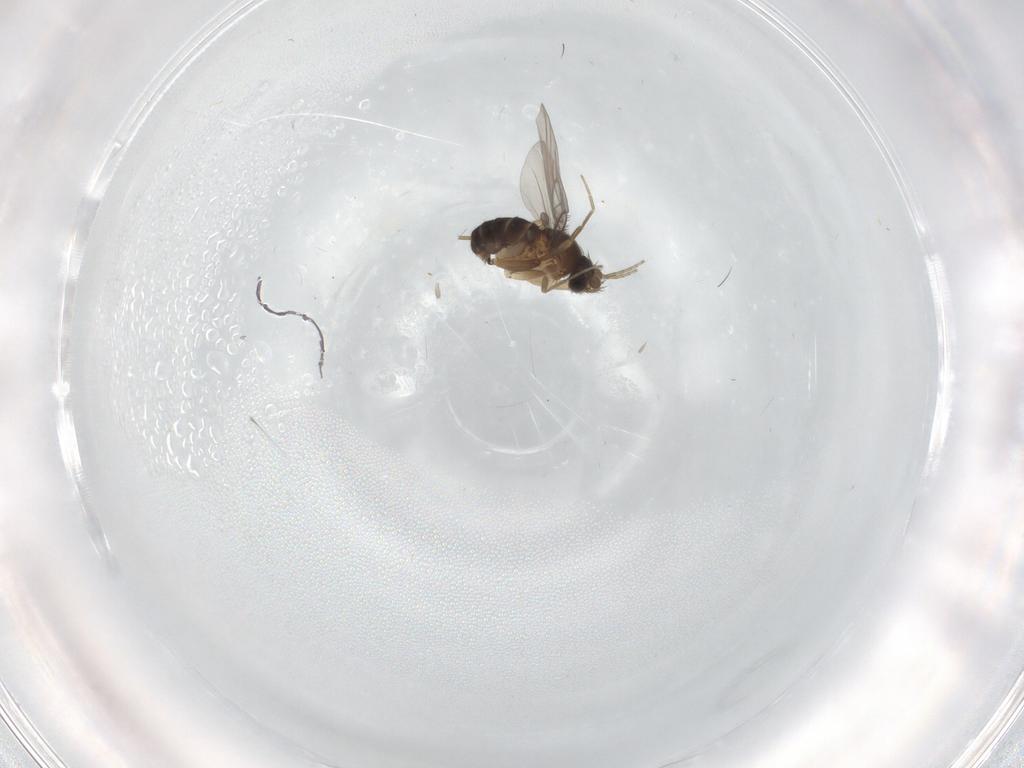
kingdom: Animalia
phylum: Arthropoda
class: Insecta
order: Diptera
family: Phoridae
